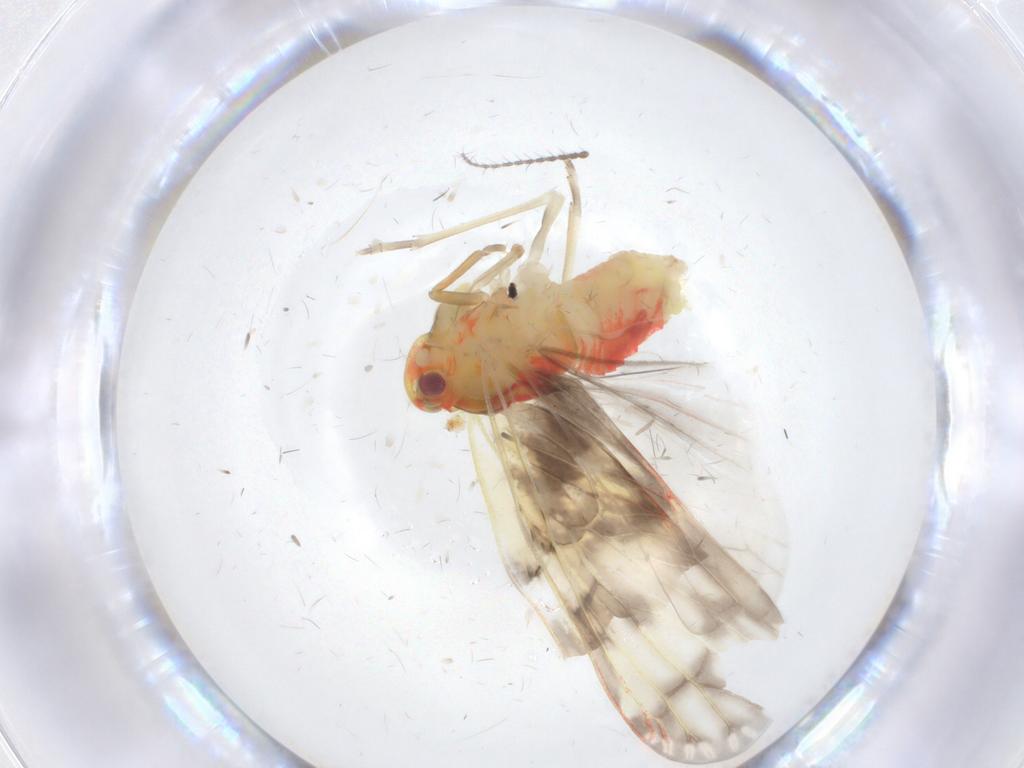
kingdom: Animalia
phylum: Arthropoda
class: Insecta
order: Hemiptera
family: Derbidae
